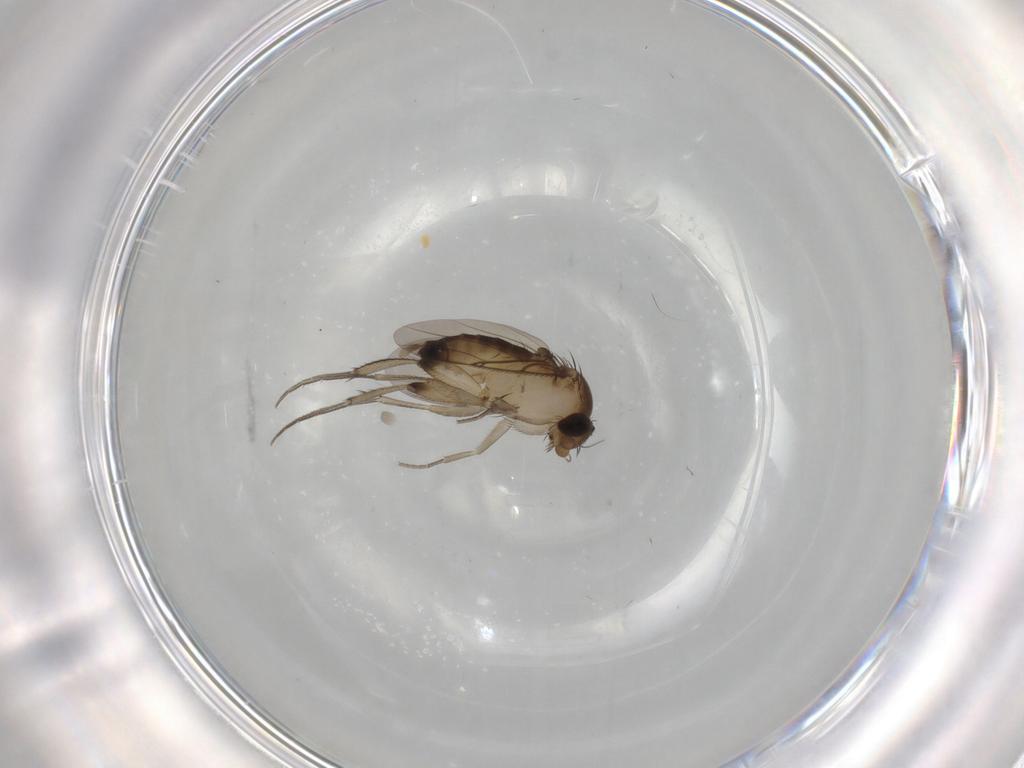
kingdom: Animalia
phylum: Arthropoda
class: Insecta
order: Diptera
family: Phoridae
